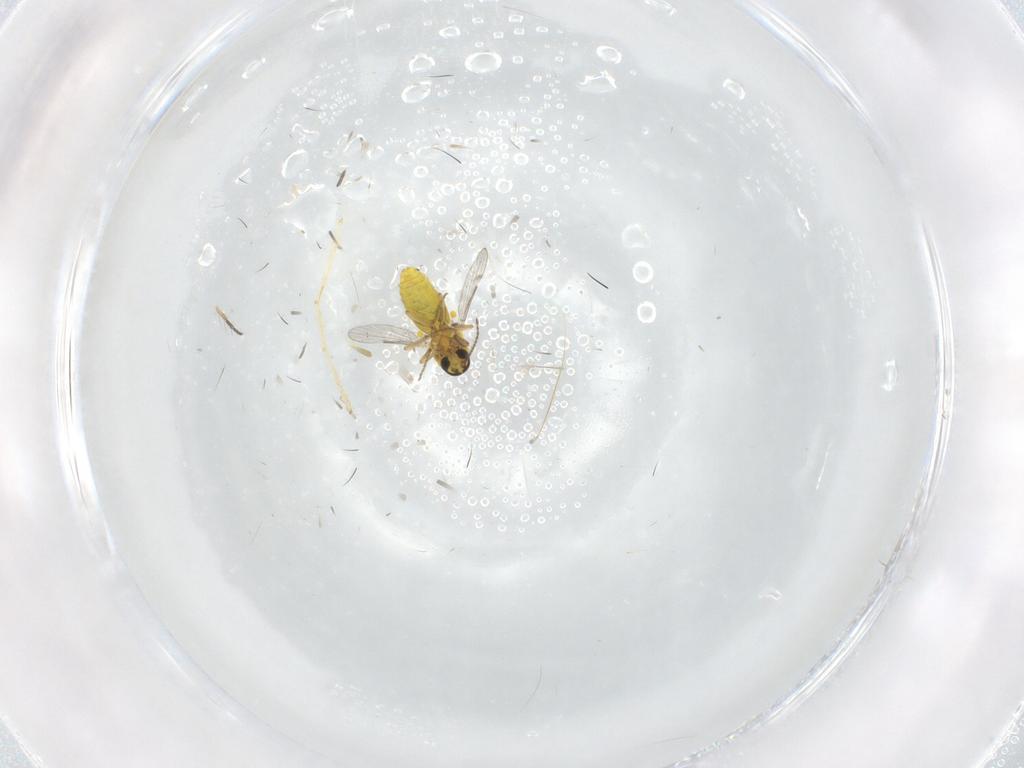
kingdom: Animalia
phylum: Arthropoda
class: Insecta
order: Diptera
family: Chironomidae
